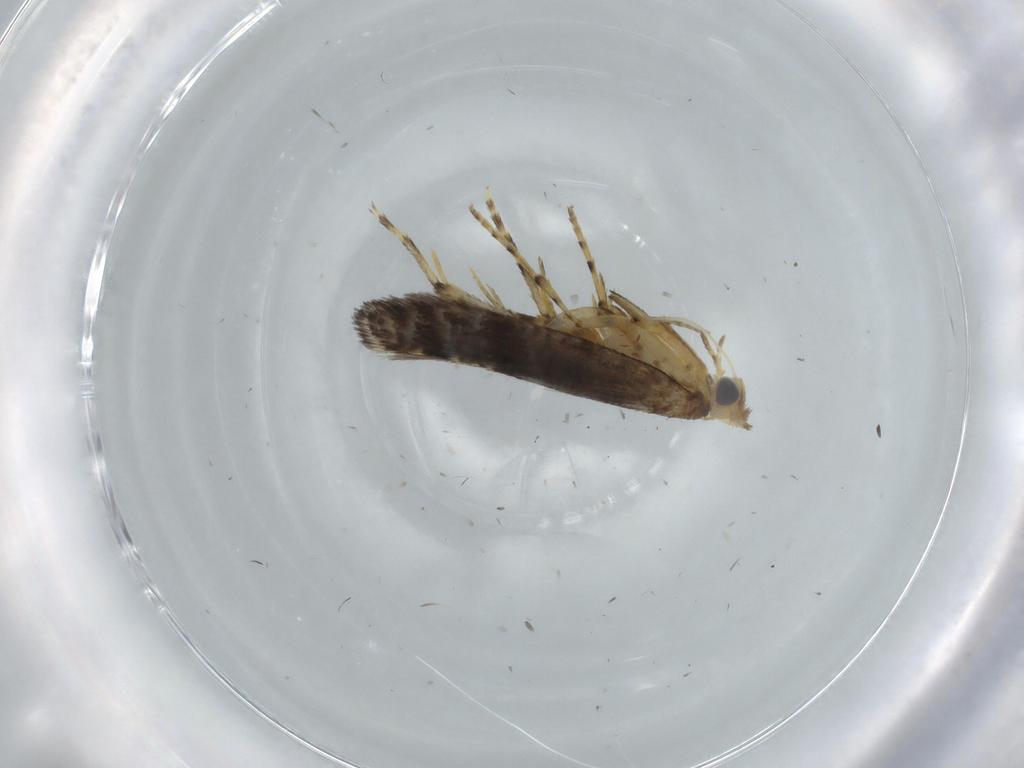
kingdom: Animalia
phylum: Arthropoda
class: Insecta
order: Lepidoptera
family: Argyresthiidae
